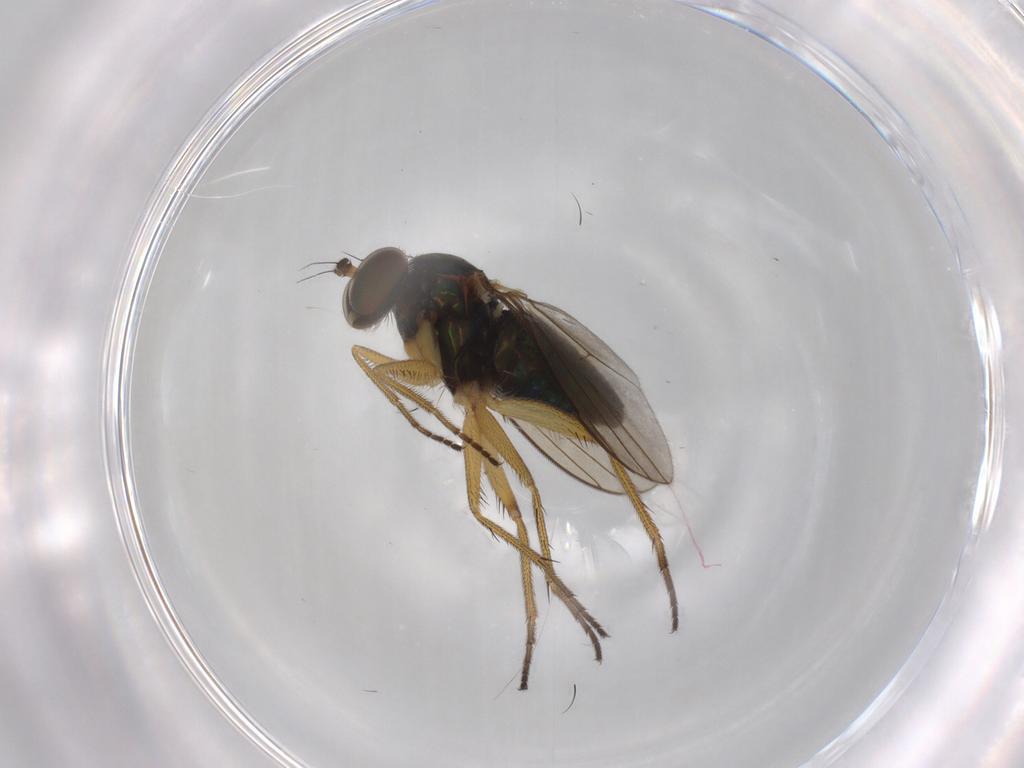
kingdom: Animalia
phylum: Arthropoda
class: Insecta
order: Diptera
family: Dolichopodidae
